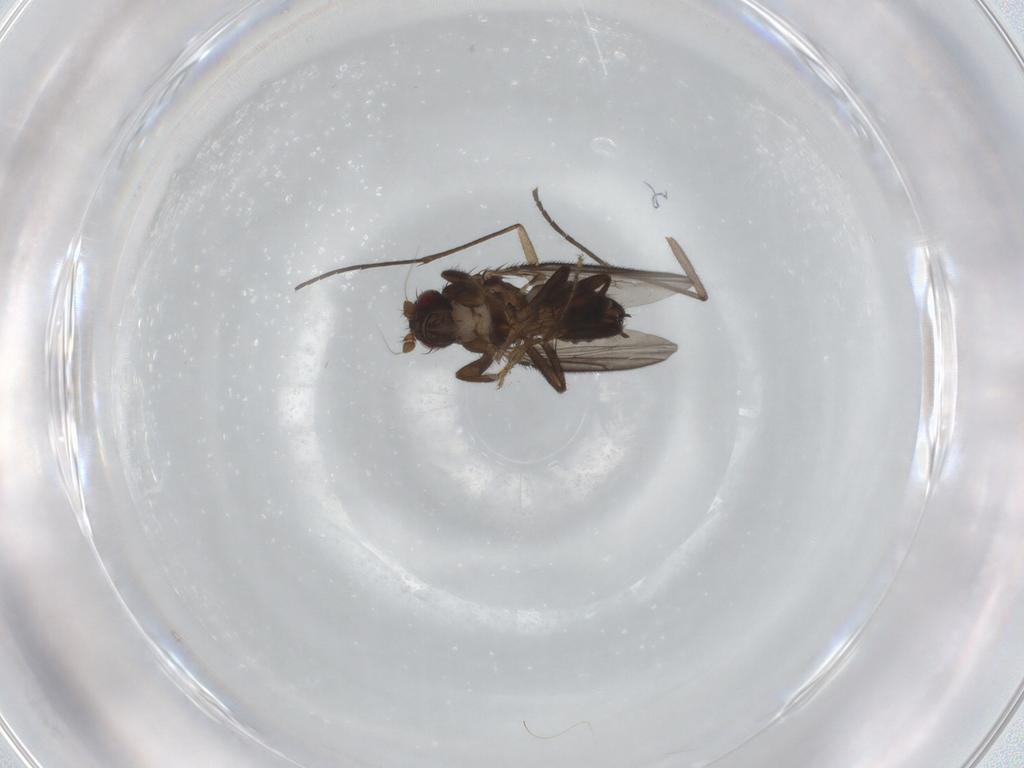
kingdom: Animalia
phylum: Arthropoda
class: Insecta
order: Diptera
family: Sciaridae
